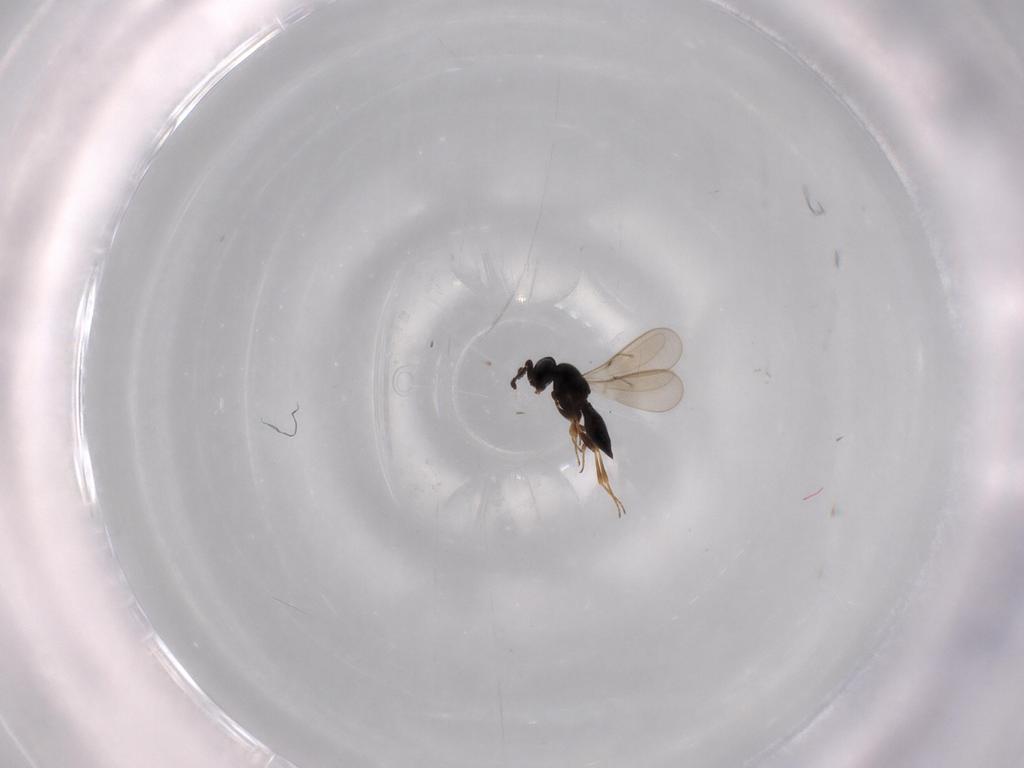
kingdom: Animalia
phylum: Arthropoda
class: Insecta
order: Hymenoptera
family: Scelionidae
